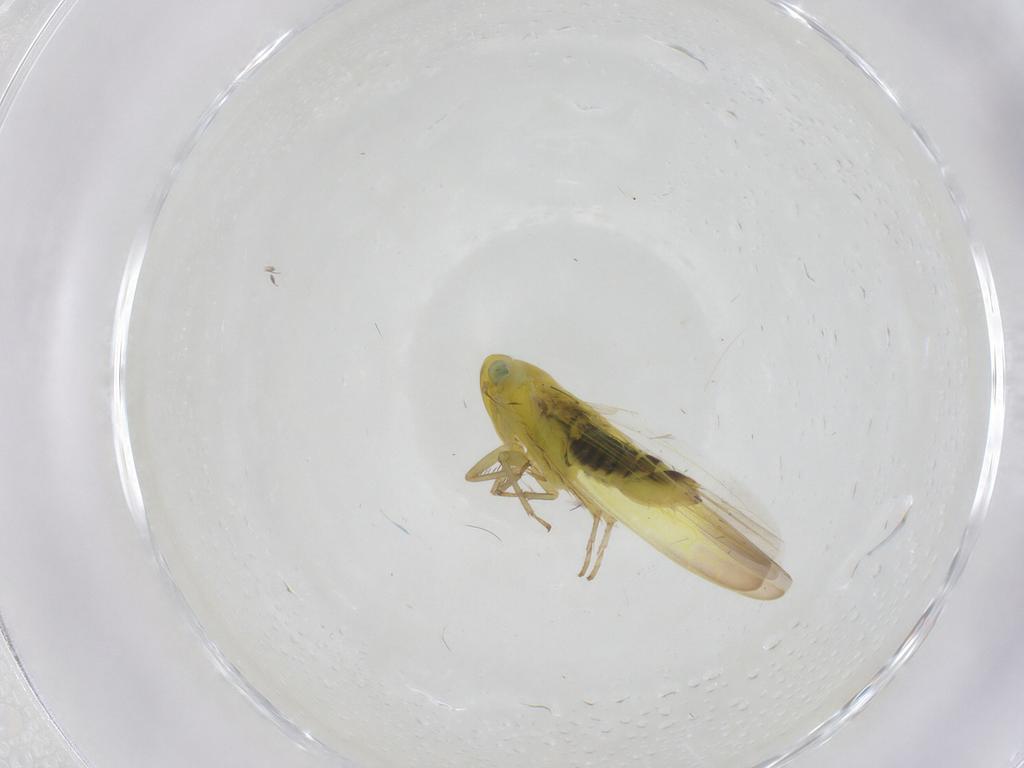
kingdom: Animalia
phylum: Arthropoda
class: Insecta
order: Hemiptera
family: Cicadellidae
